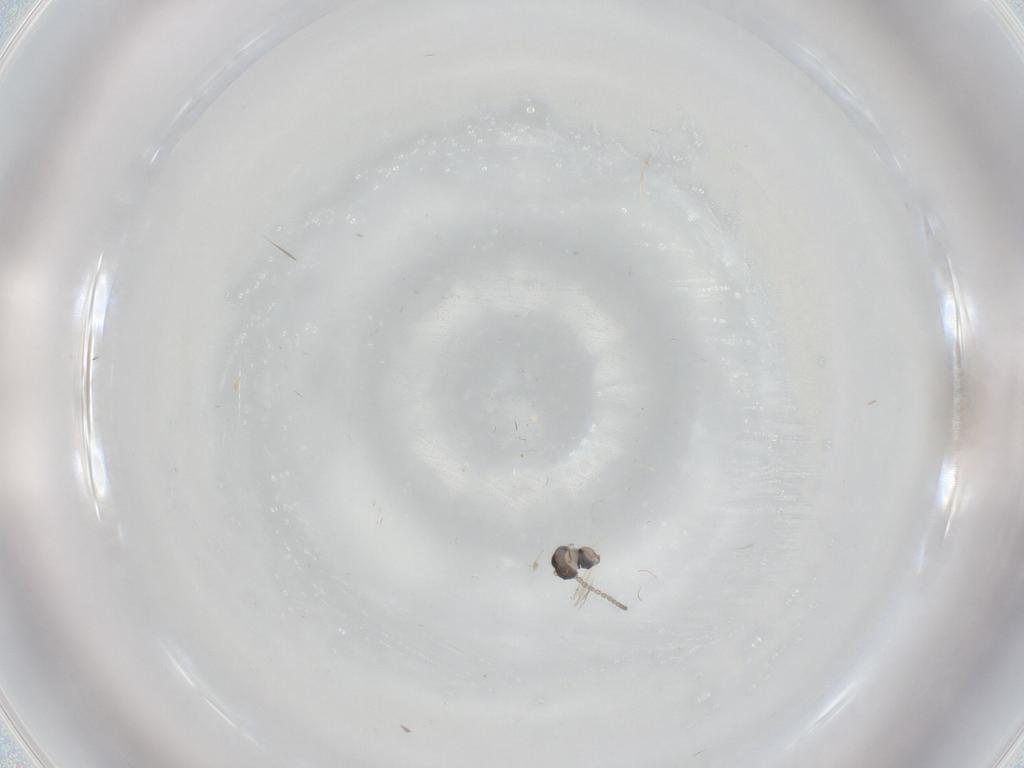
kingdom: Animalia
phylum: Arthropoda
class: Insecta
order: Diptera
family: Cecidomyiidae
